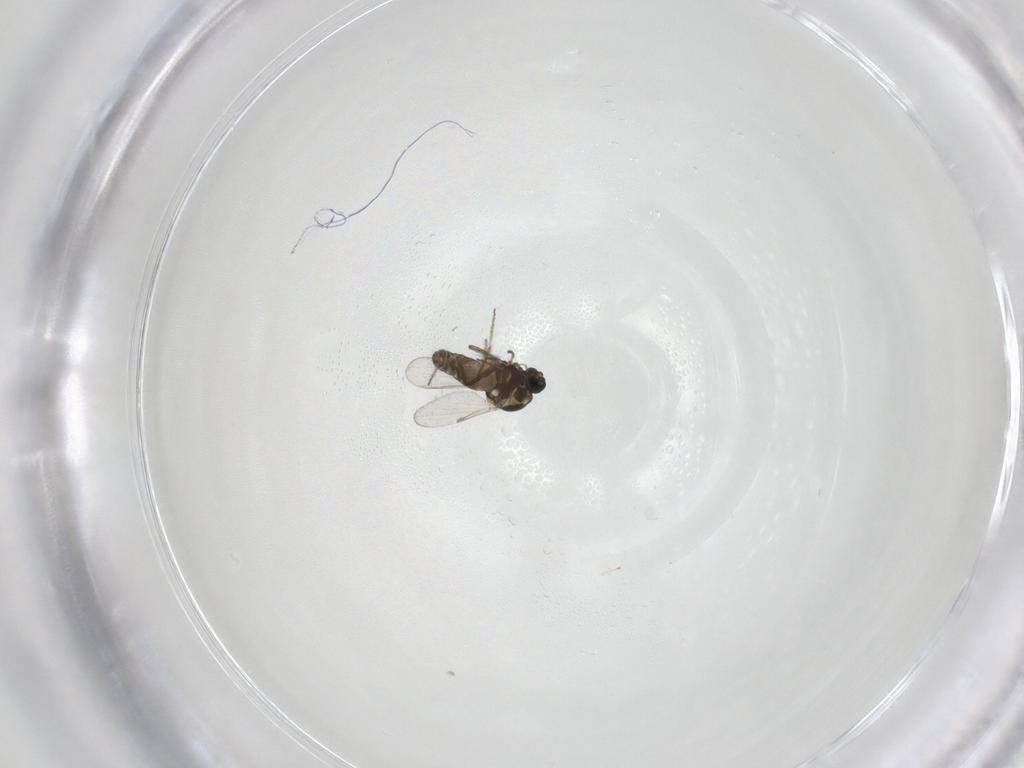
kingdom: Animalia
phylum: Arthropoda
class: Insecta
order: Diptera
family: Ceratopogonidae
